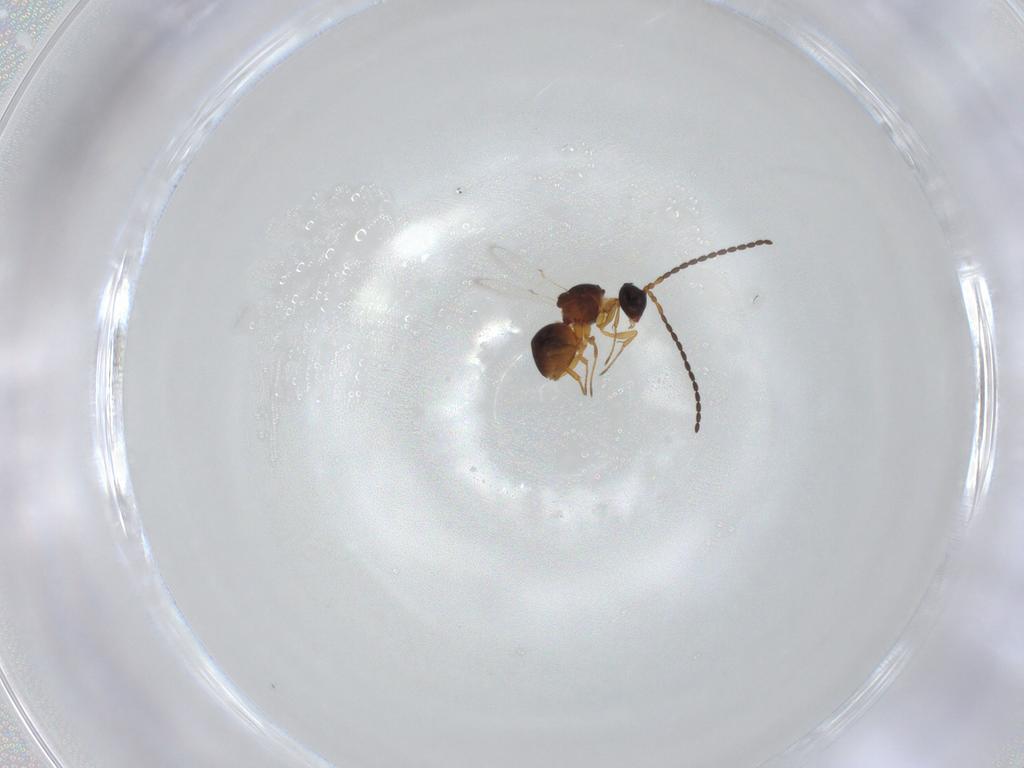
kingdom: Animalia
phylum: Arthropoda
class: Insecta
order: Hymenoptera
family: Figitidae
